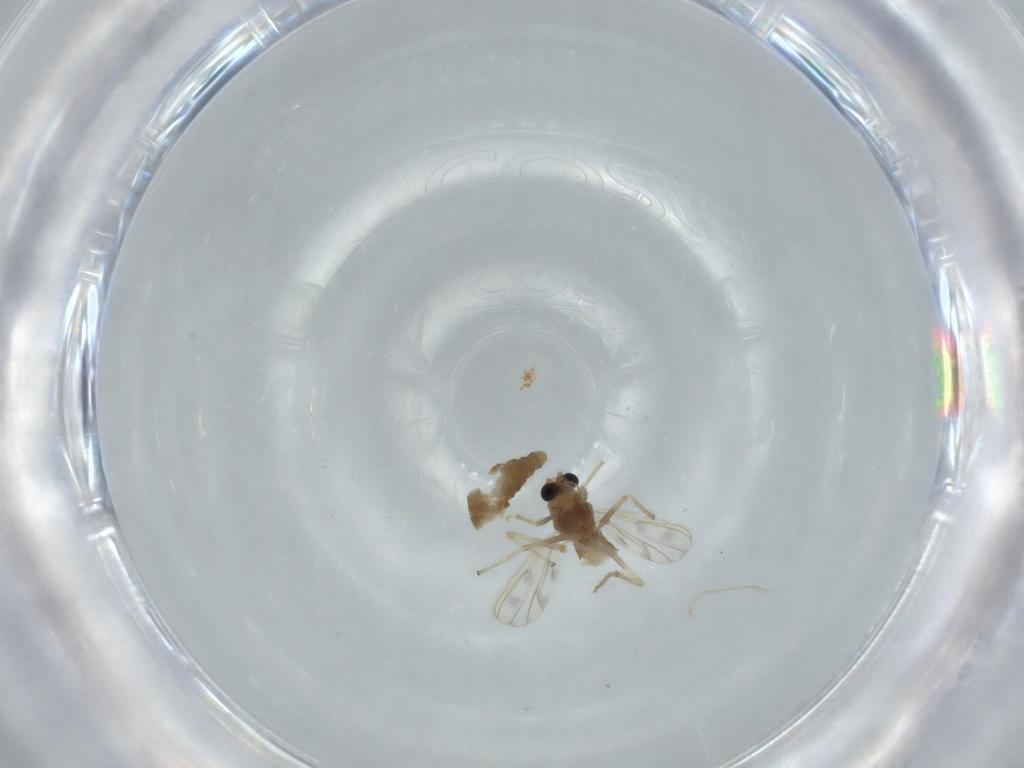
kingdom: Animalia
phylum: Arthropoda
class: Insecta
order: Diptera
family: Chironomidae
